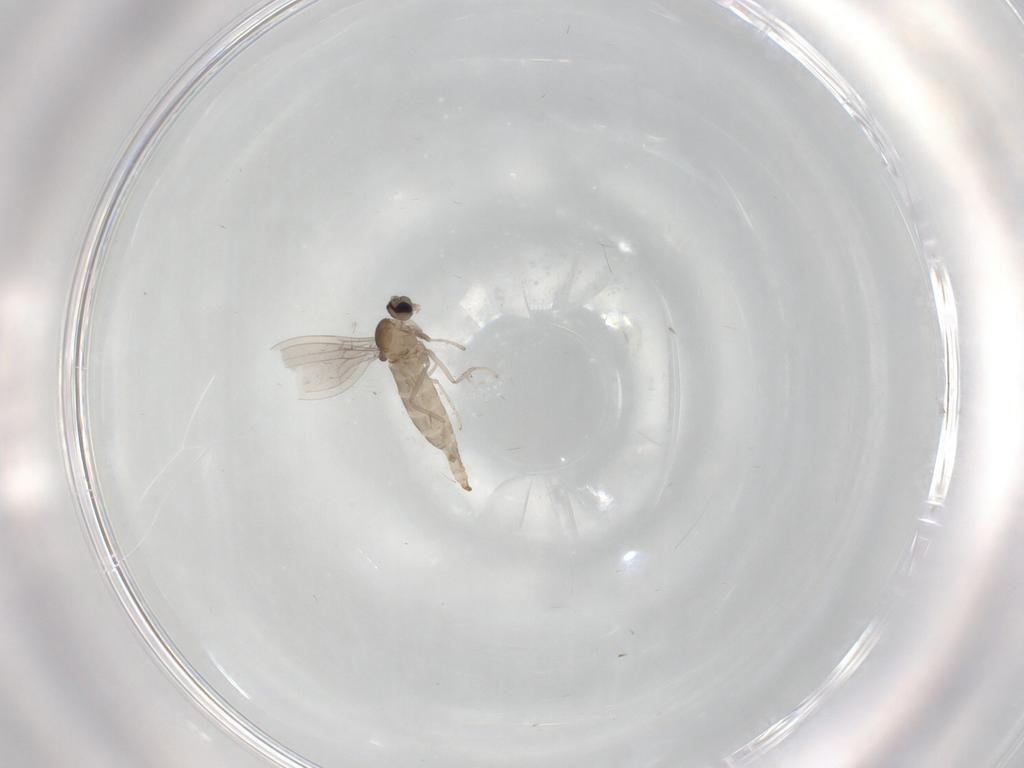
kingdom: Animalia
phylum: Arthropoda
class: Insecta
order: Diptera
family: Cecidomyiidae
